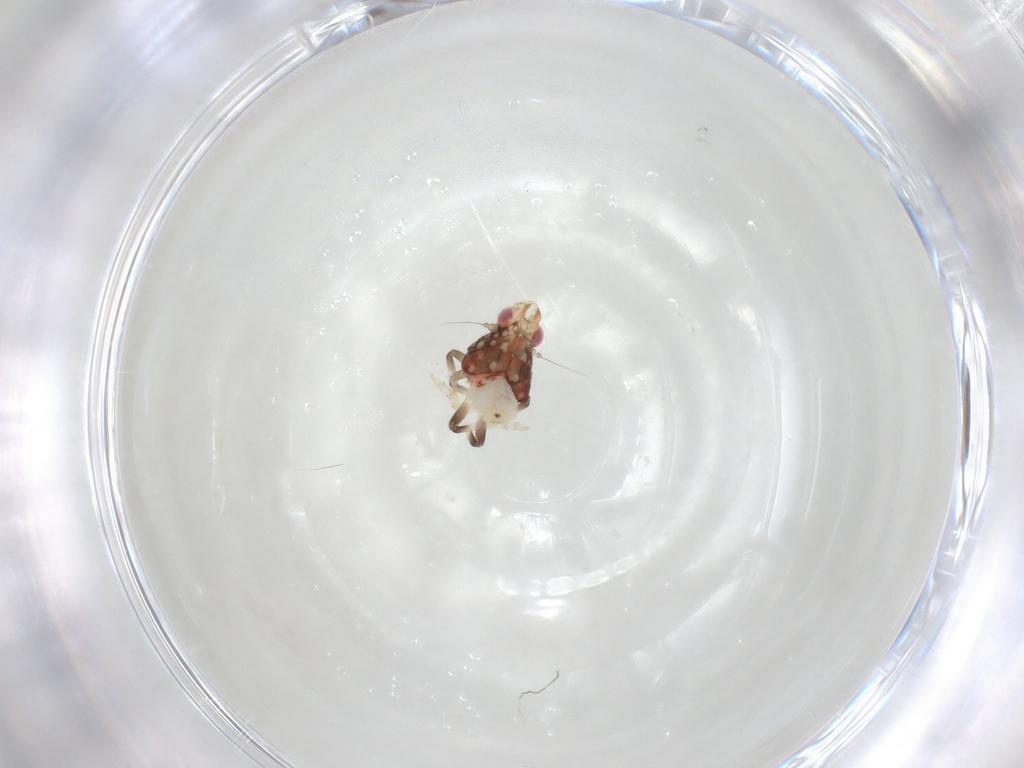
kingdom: Animalia
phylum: Arthropoda
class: Insecta
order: Hemiptera
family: Tropiduchidae
